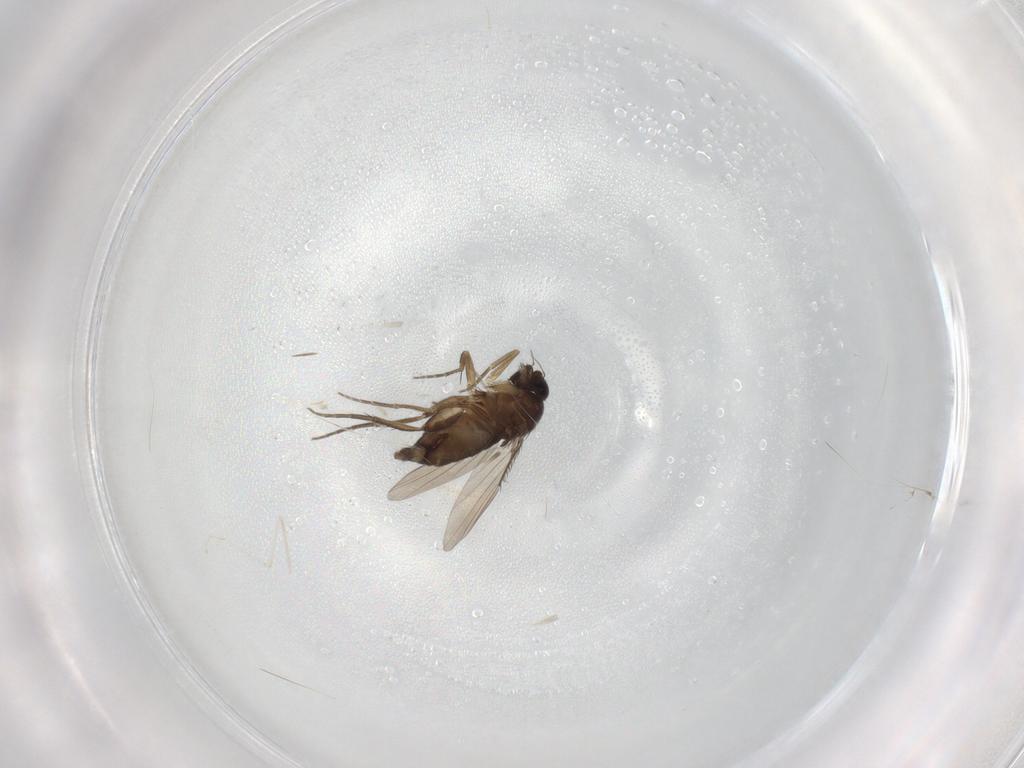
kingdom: Animalia
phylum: Arthropoda
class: Insecta
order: Diptera
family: Phoridae
